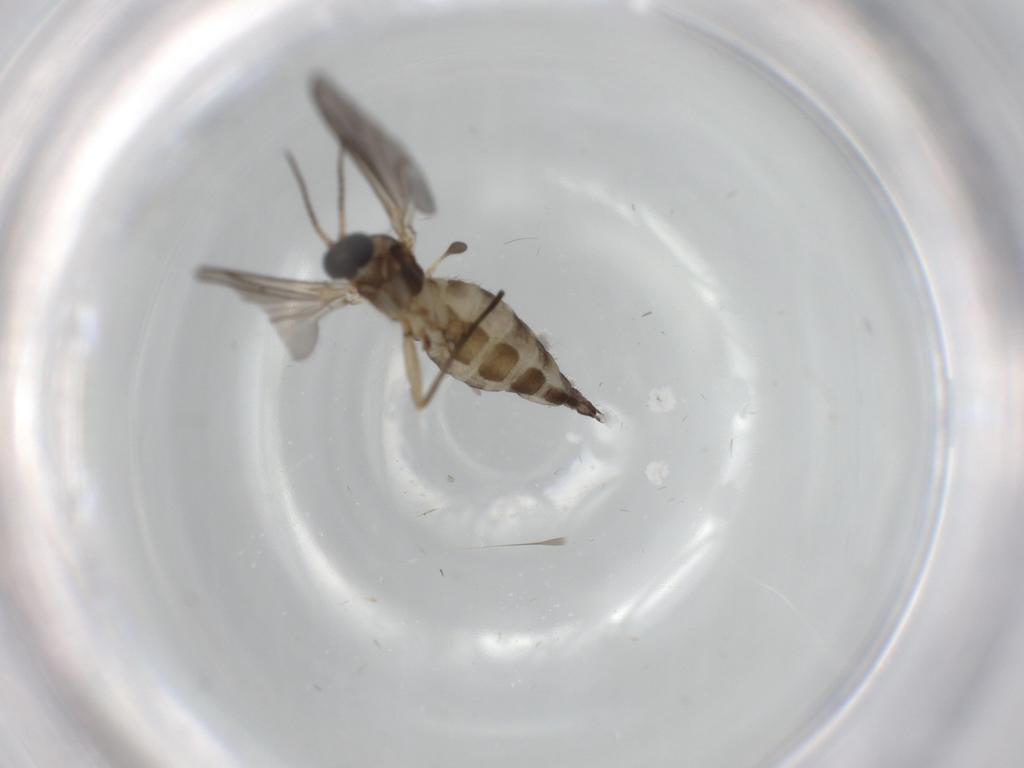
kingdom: Animalia
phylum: Arthropoda
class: Insecta
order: Diptera
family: Sciaridae
